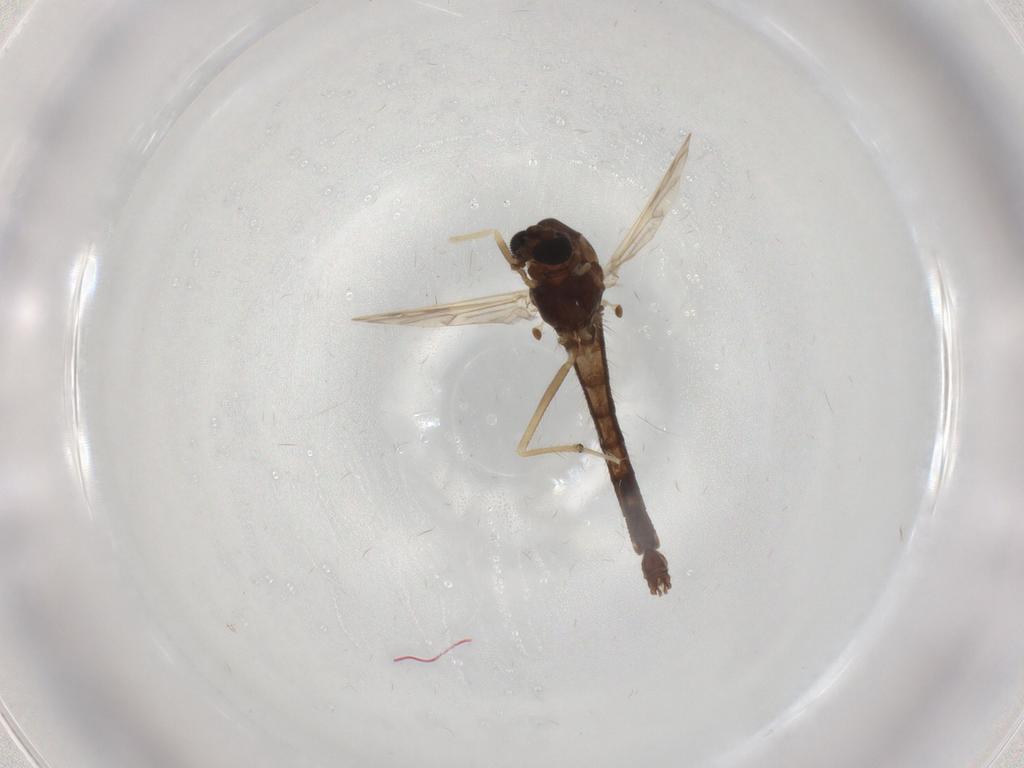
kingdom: Animalia
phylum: Arthropoda
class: Insecta
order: Diptera
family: Chironomidae
